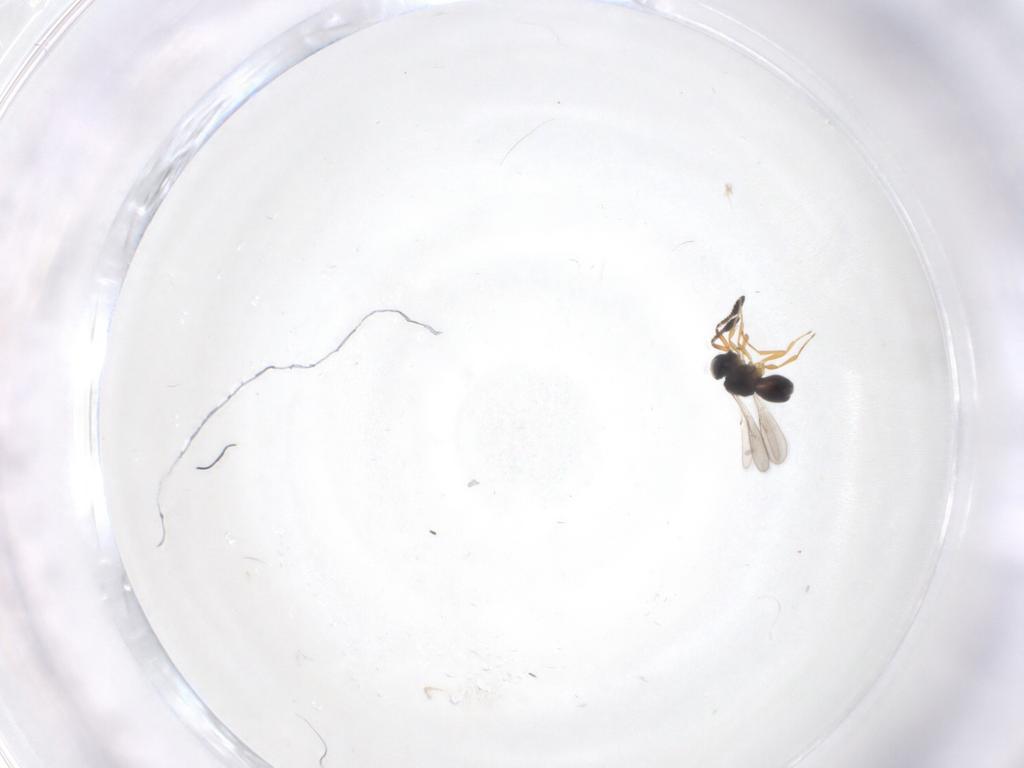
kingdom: Animalia
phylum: Arthropoda
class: Insecta
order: Hymenoptera
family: Scelionidae
